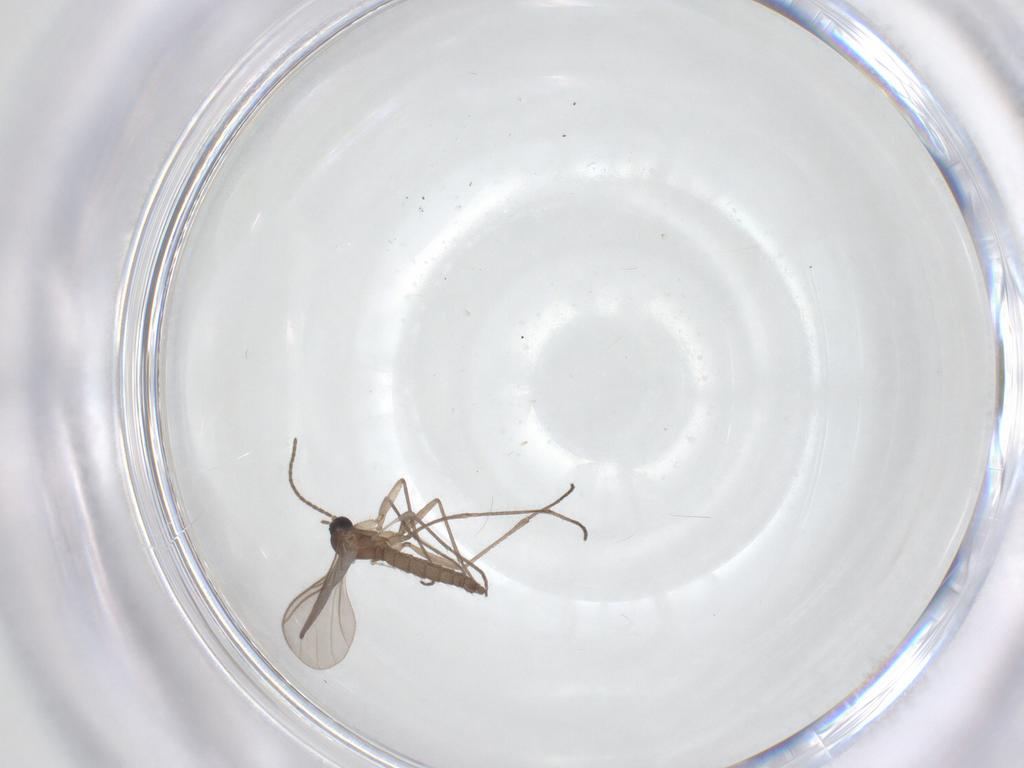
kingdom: Animalia
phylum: Arthropoda
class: Insecta
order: Diptera
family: Sciaridae
